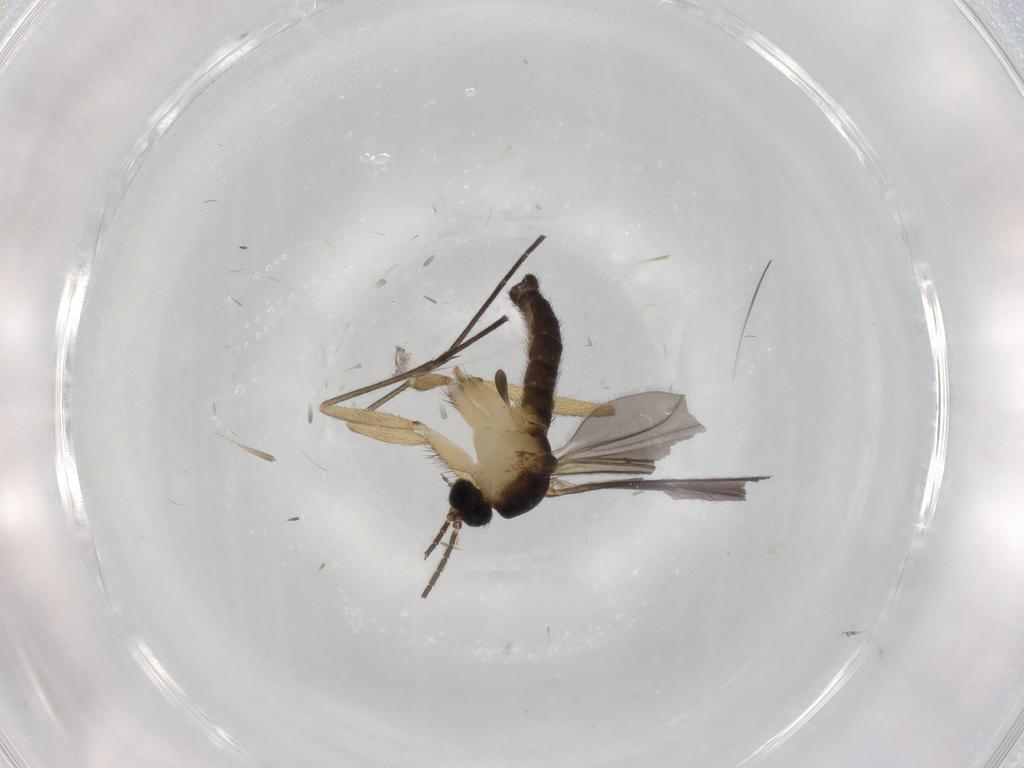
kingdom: Animalia
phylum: Arthropoda
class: Insecta
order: Diptera
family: Sciaridae
